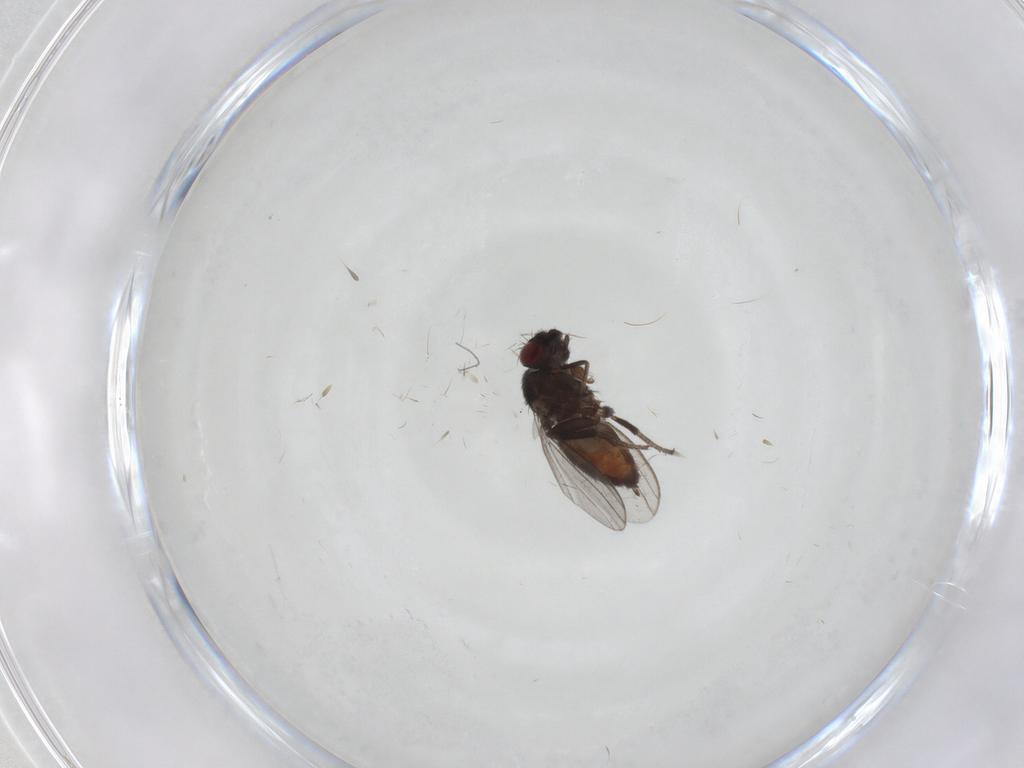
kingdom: Animalia
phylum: Arthropoda
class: Insecta
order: Diptera
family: Milichiidae
